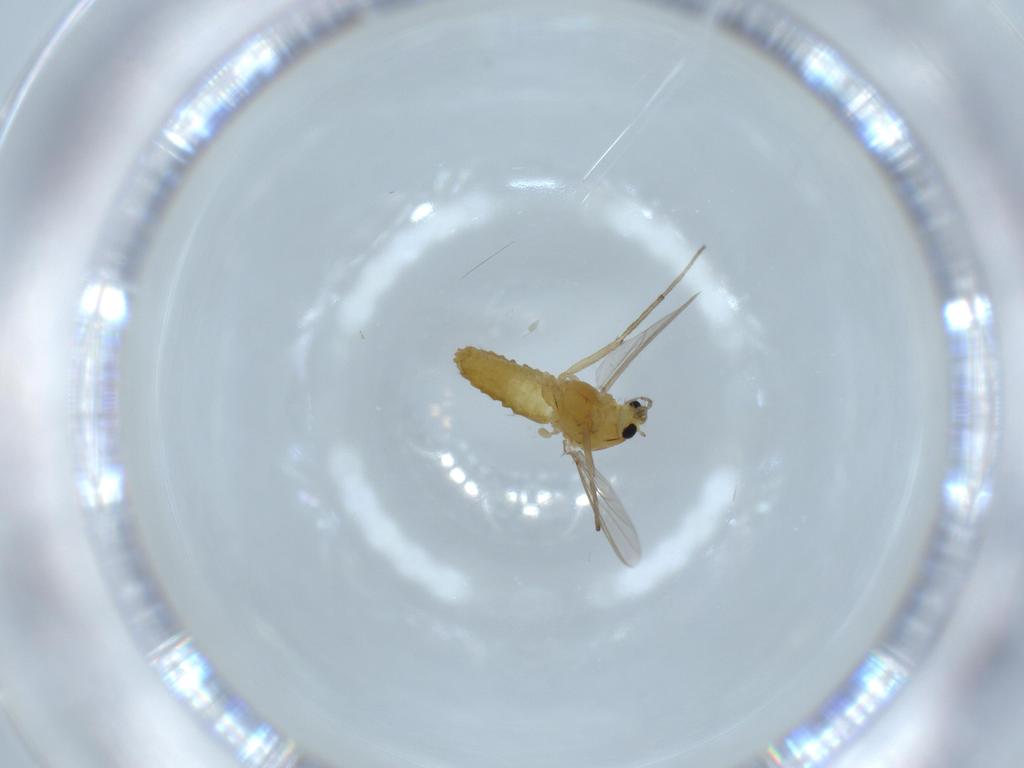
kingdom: Animalia
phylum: Arthropoda
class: Insecta
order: Diptera
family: Chironomidae
